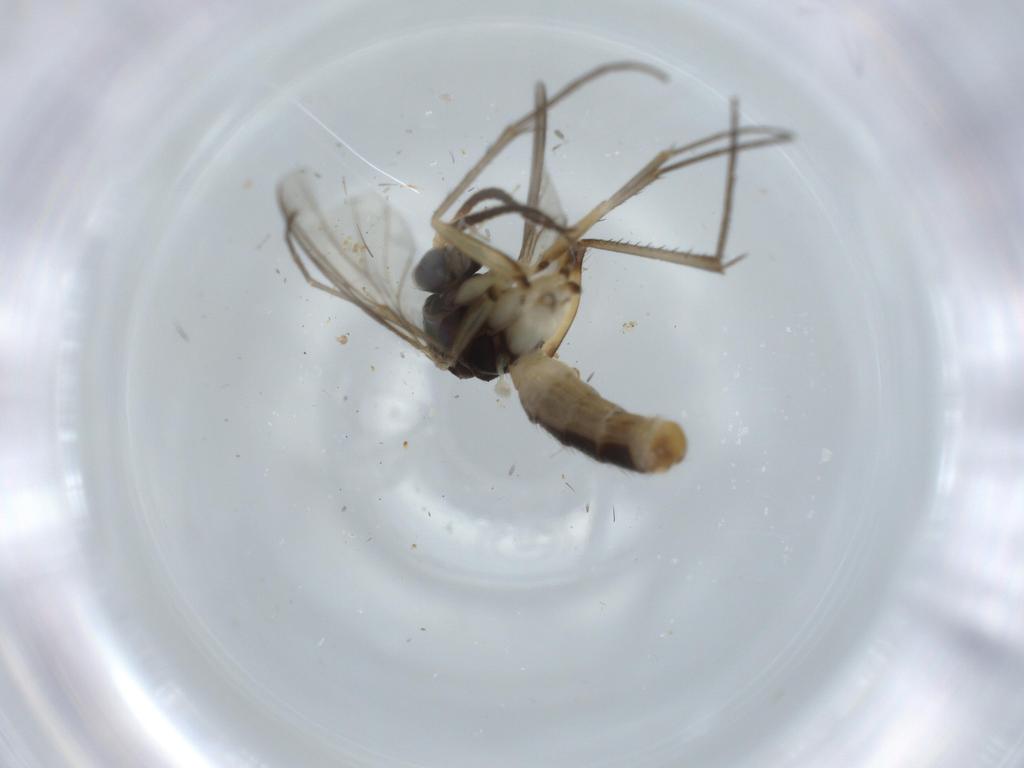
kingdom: Animalia
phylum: Arthropoda
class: Insecta
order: Diptera
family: Mycetophilidae
